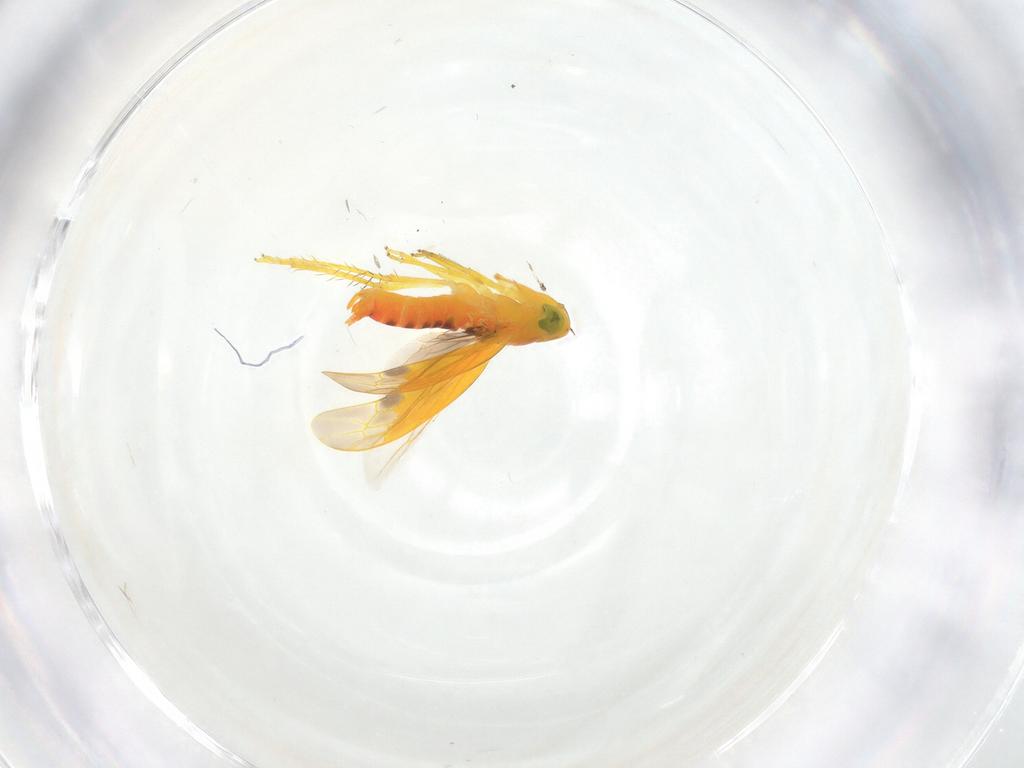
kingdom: Animalia
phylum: Arthropoda
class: Insecta
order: Hemiptera
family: Cicadellidae
